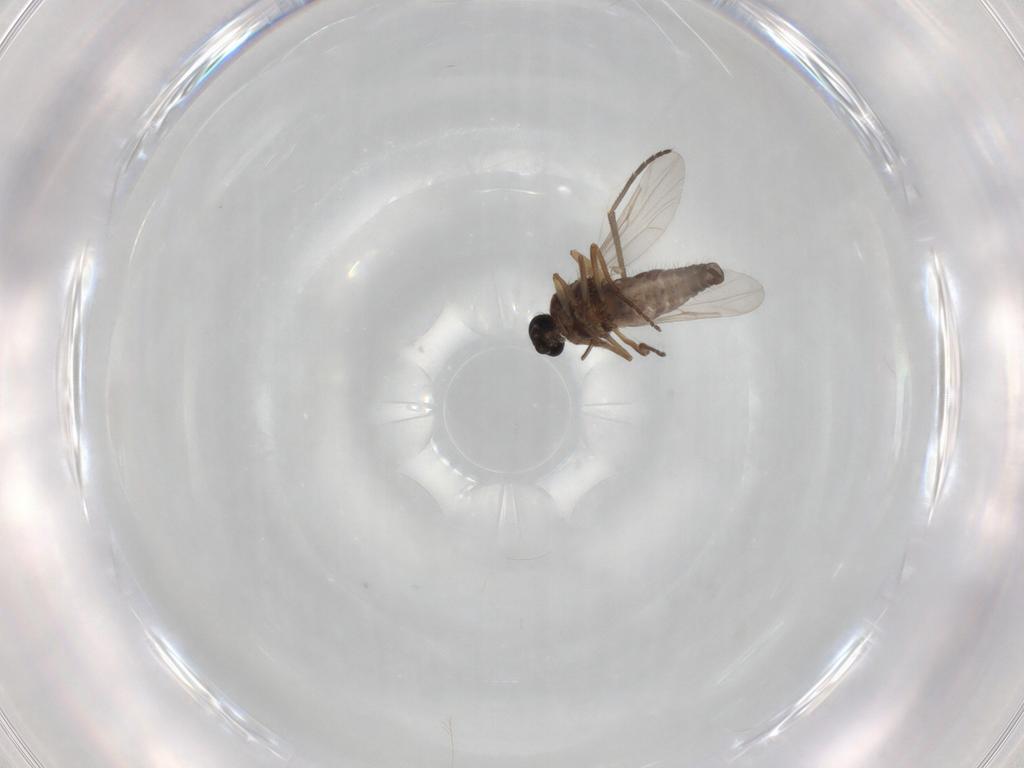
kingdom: Animalia
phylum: Arthropoda
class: Insecta
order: Diptera
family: Ceratopogonidae
